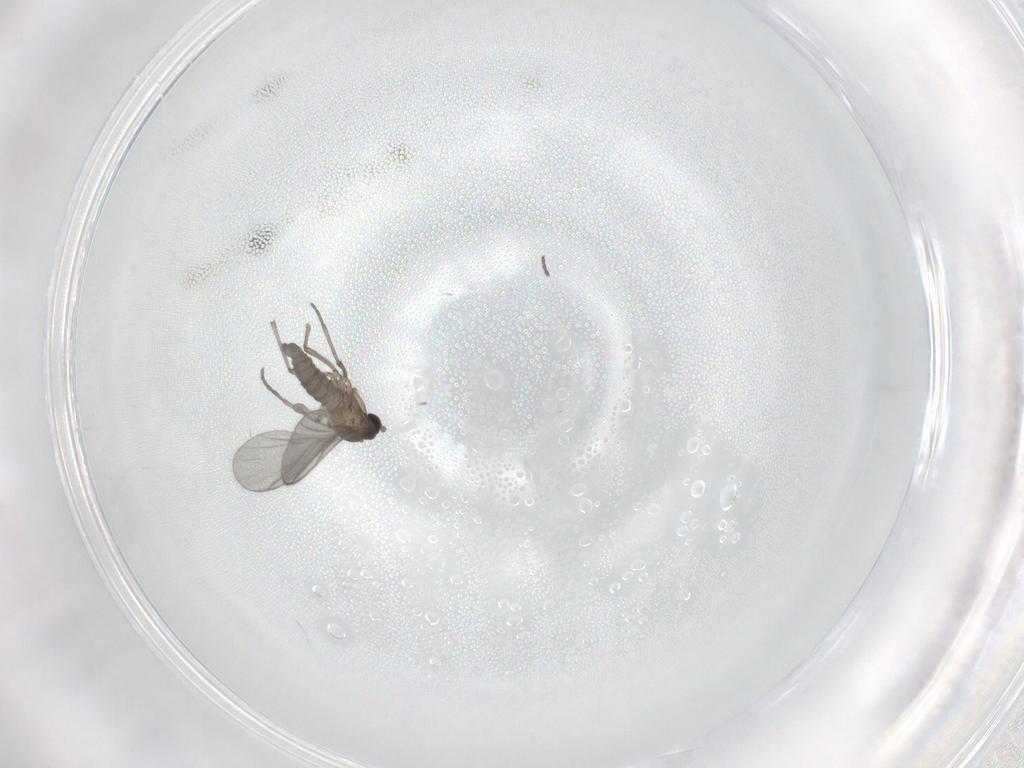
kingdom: Animalia
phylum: Arthropoda
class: Insecta
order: Diptera
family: Sciaridae
